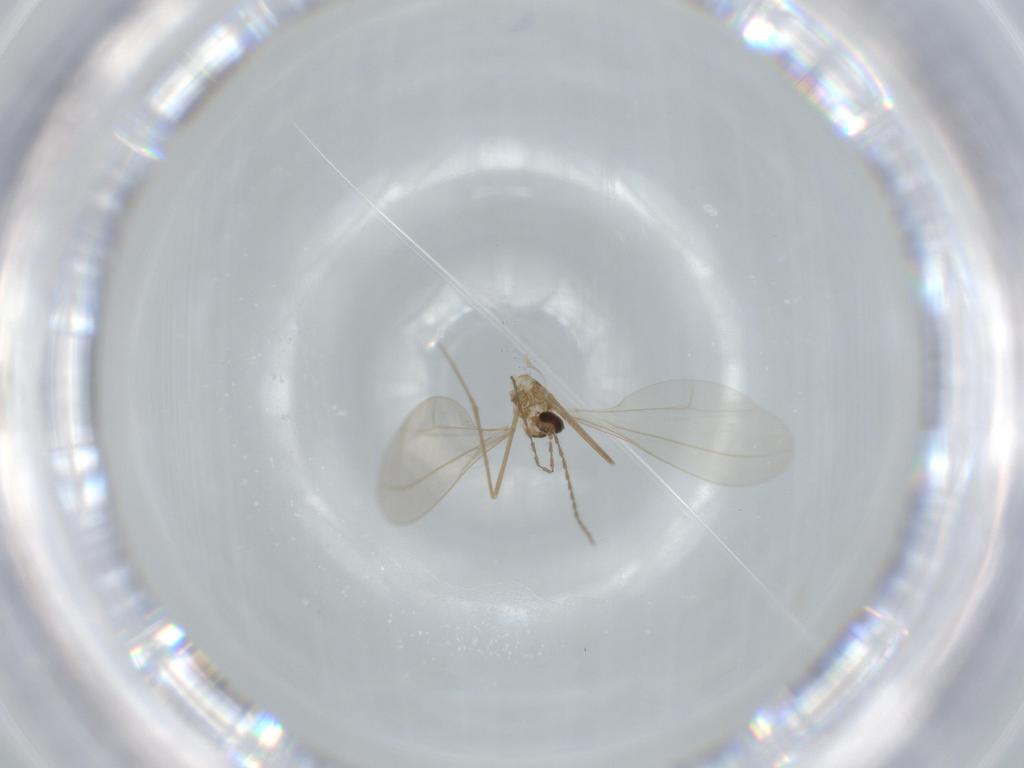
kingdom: Animalia
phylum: Arthropoda
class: Insecta
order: Diptera
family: Cecidomyiidae
